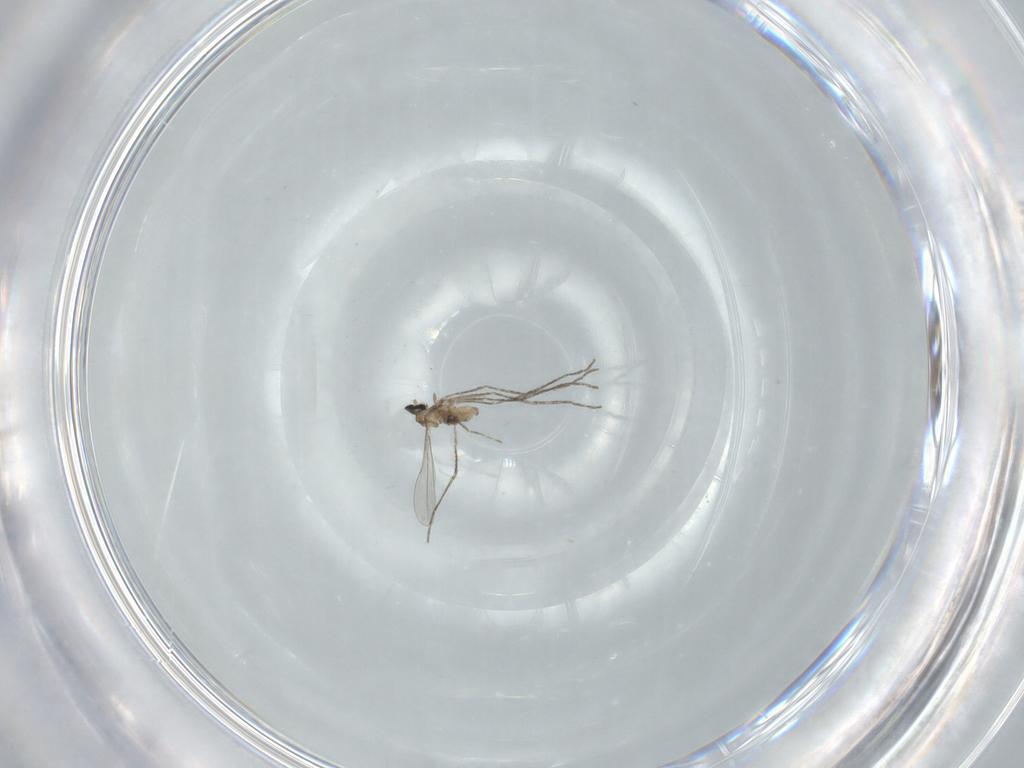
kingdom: Animalia
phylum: Arthropoda
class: Insecta
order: Diptera
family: Cecidomyiidae
